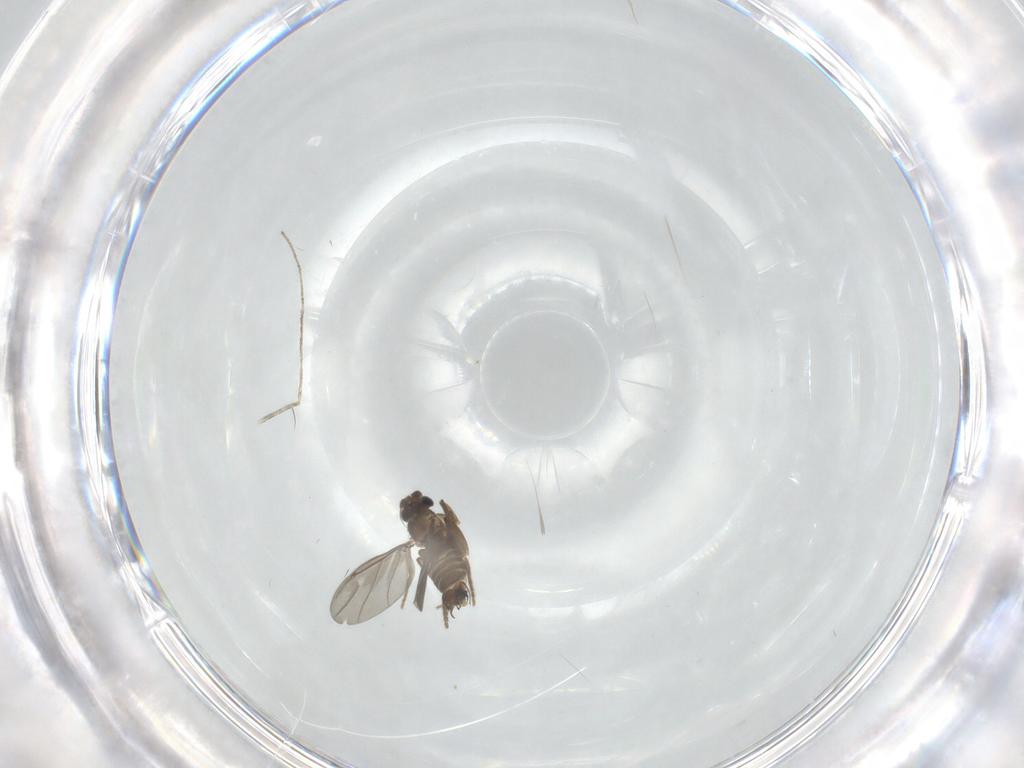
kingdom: Animalia
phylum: Arthropoda
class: Insecta
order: Diptera
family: Phoridae
